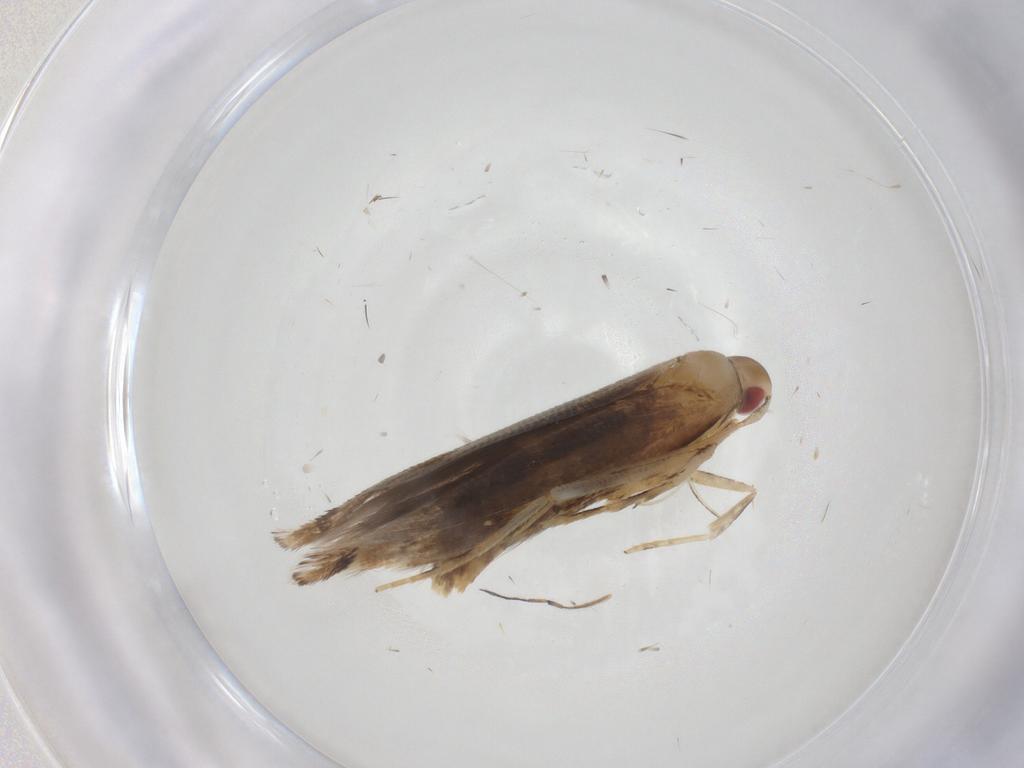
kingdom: Animalia
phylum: Arthropoda
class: Insecta
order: Lepidoptera
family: Cosmopterigidae
